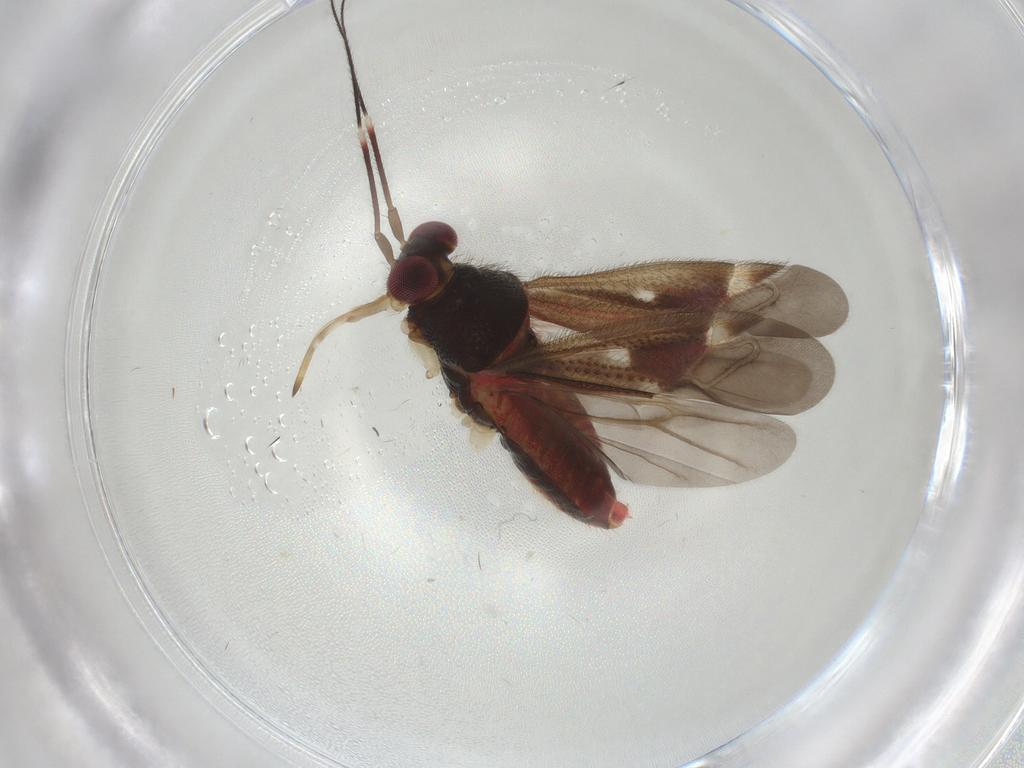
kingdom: Animalia
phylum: Arthropoda
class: Insecta
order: Hemiptera
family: Miridae
